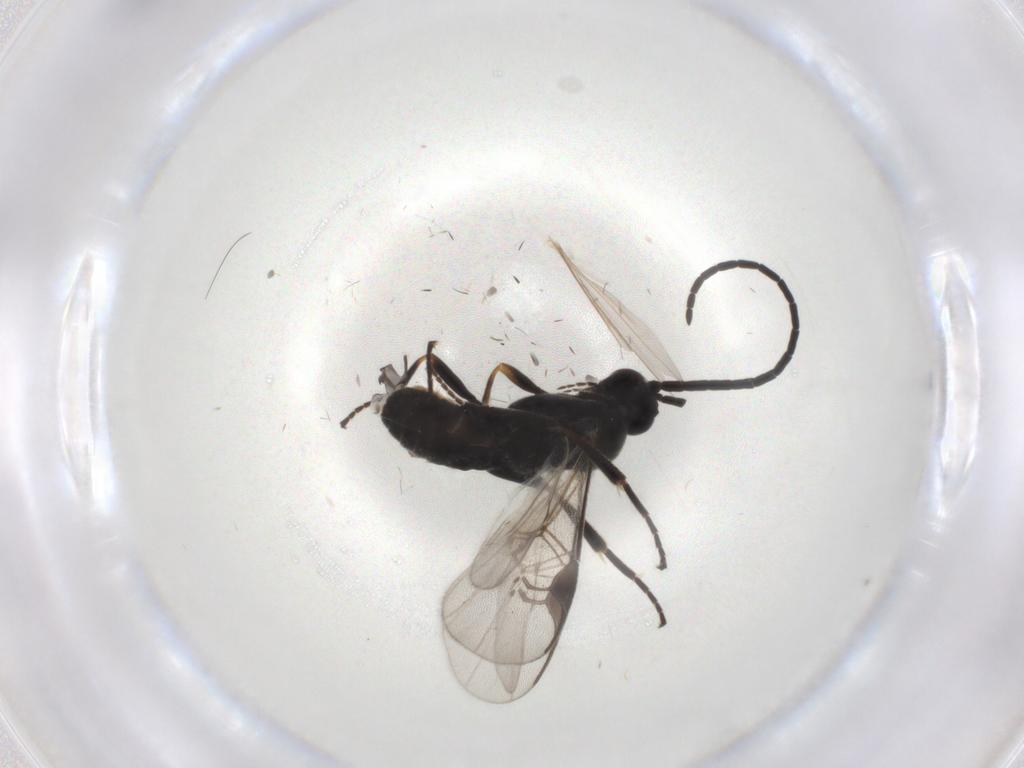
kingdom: Animalia
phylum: Arthropoda
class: Insecta
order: Hymenoptera
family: Braconidae
